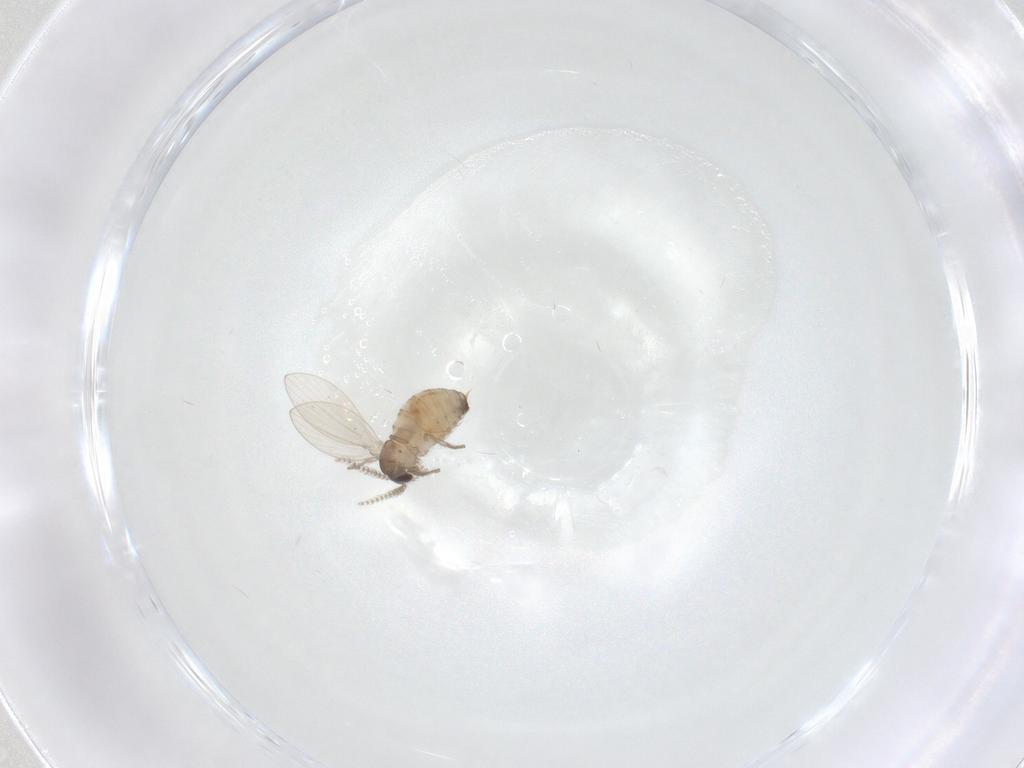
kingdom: Animalia
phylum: Arthropoda
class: Insecta
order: Diptera
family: Psychodidae
